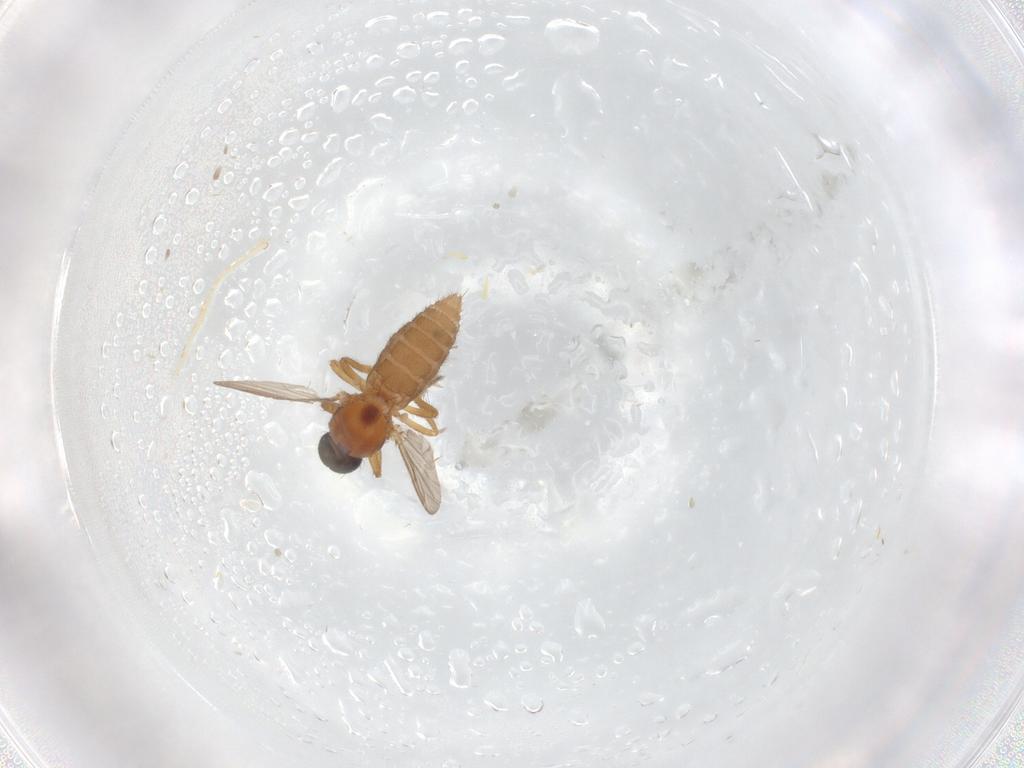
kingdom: Animalia
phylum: Arthropoda
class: Insecta
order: Diptera
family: Ceratopogonidae
